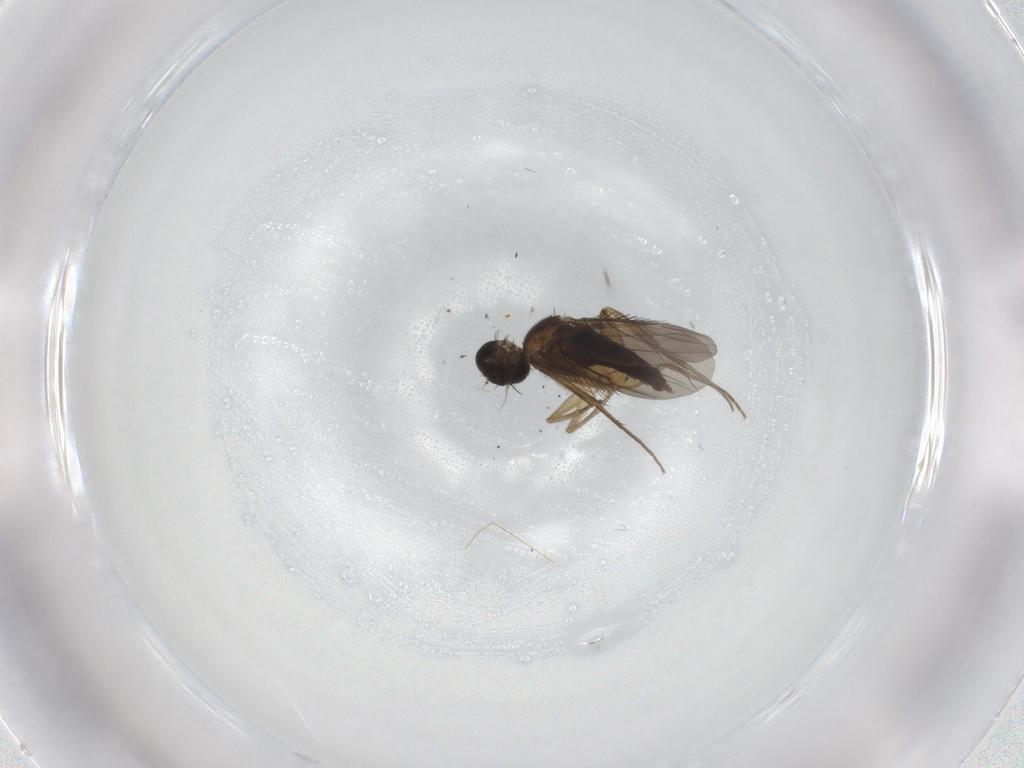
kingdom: Animalia
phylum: Arthropoda
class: Insecta
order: Diptera
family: Phoridae
